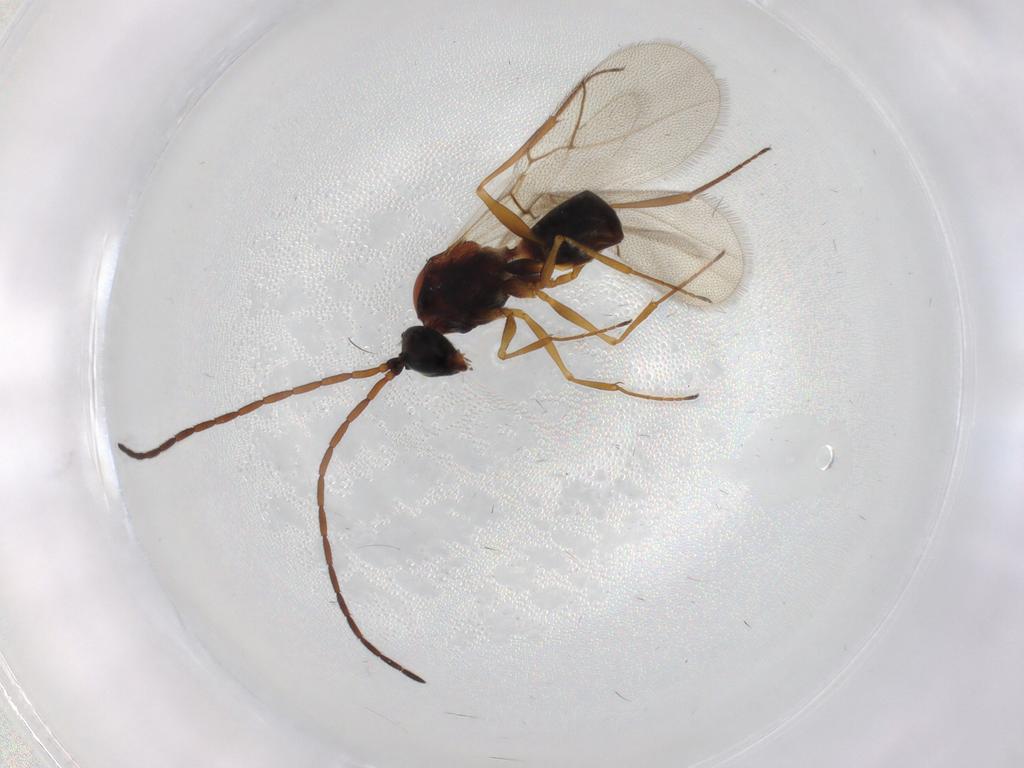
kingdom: Animalia
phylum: Arthropoda
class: Insecta
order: Hymenoptera
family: Figitidae
